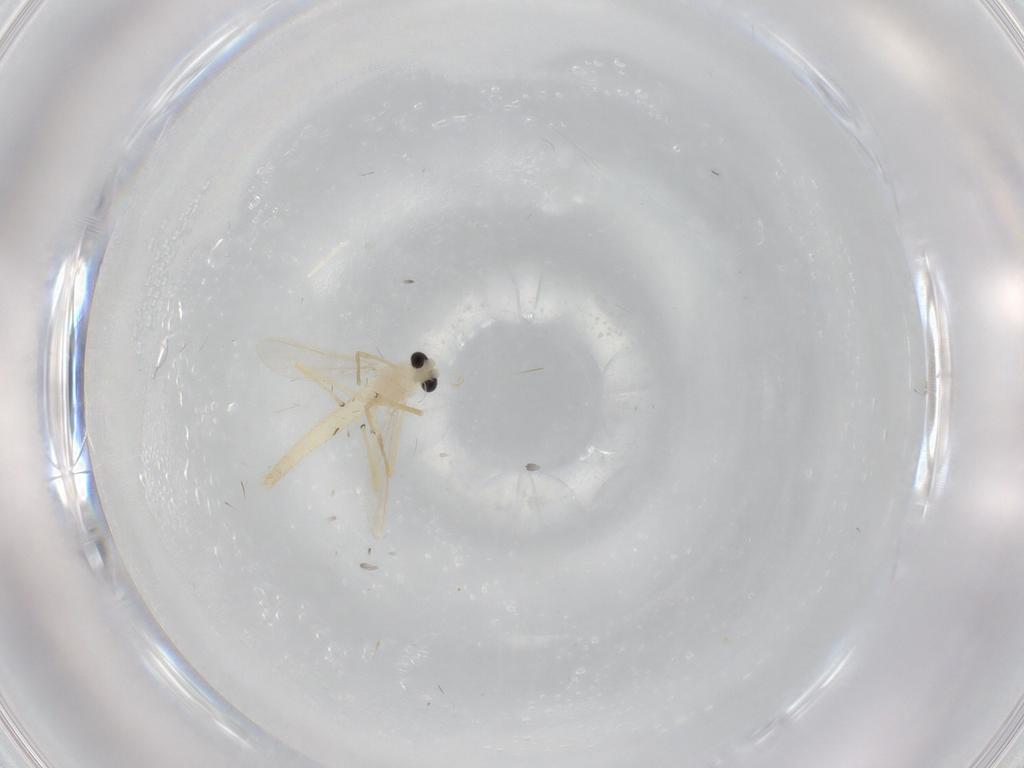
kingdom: Animalia
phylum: Arthropoda
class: Insecta
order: Diptera
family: Chironomidae
